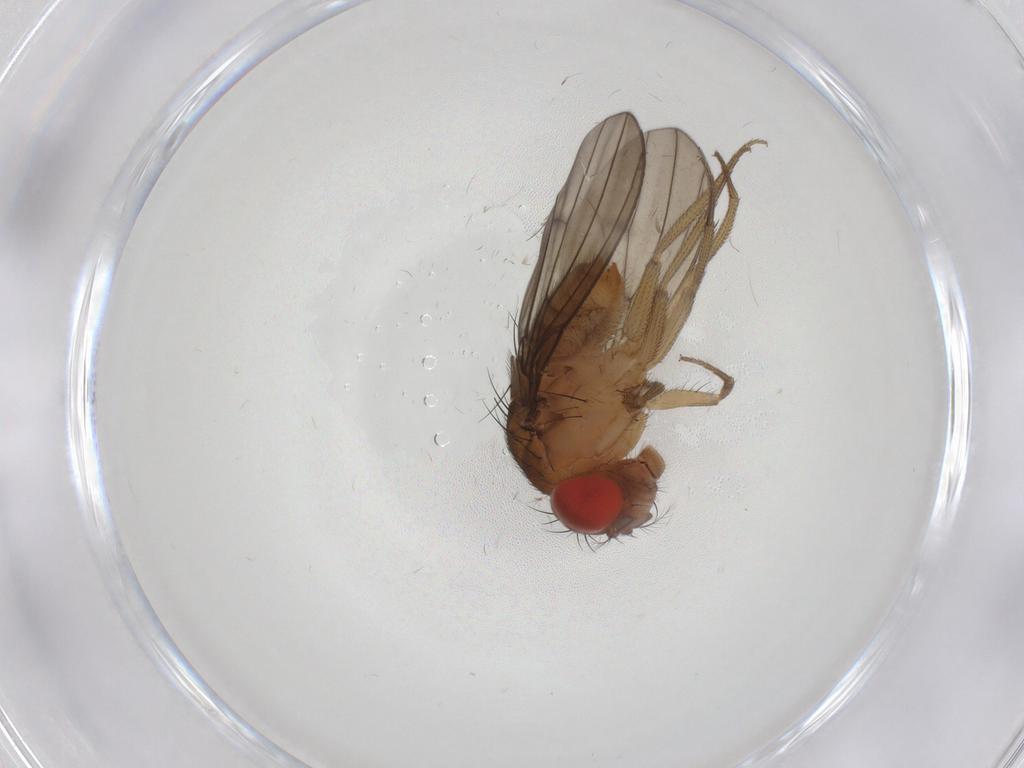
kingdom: Animalia
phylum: Arthropoda
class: Insecta
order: Diptera
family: Drosophilidae
